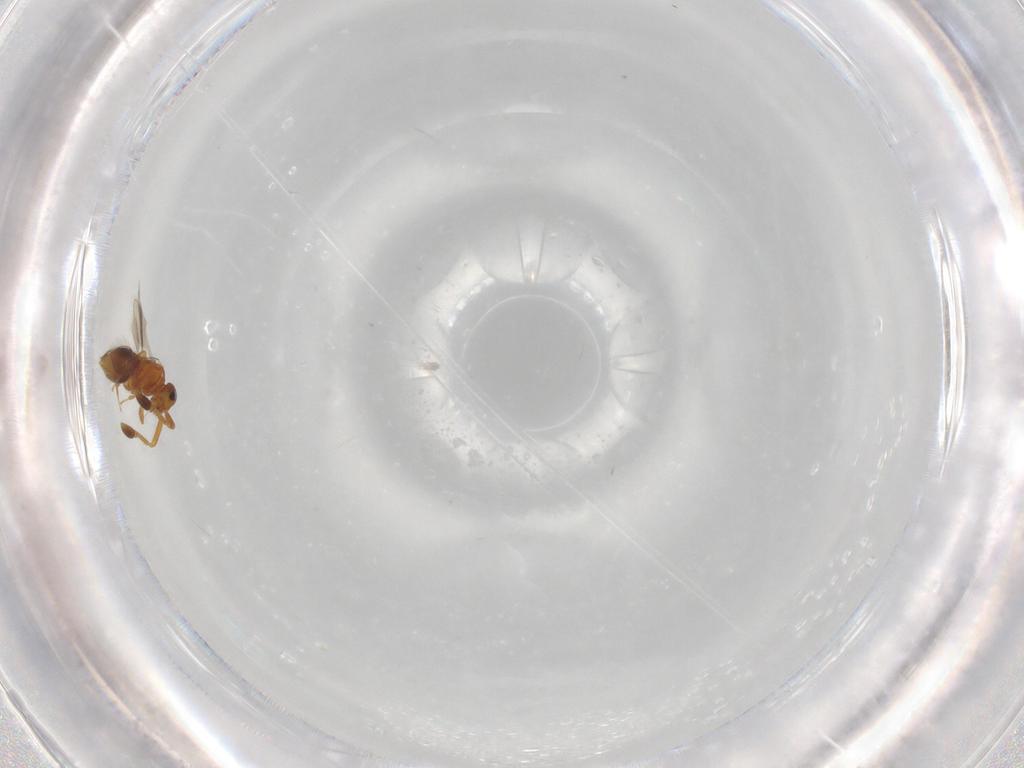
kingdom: Animalia
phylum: Arthropoda
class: Insecta
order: Hymenoptera
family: Ceraphronidae
